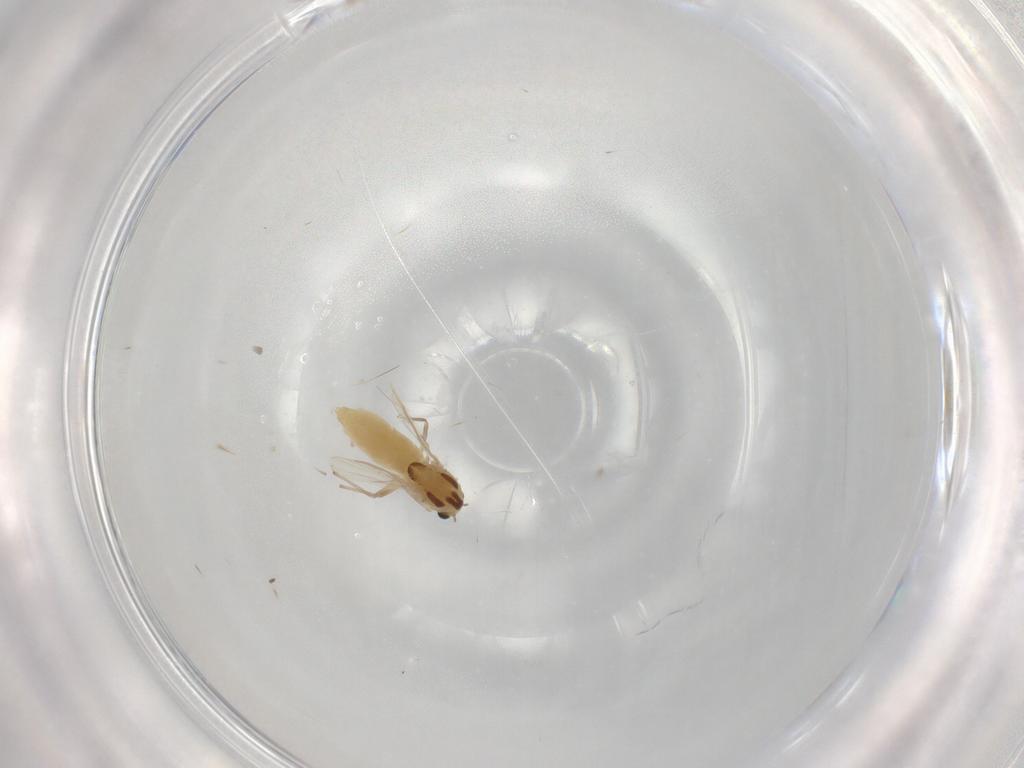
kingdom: Animalia
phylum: Arthropoda
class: Insecta
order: Diptera
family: Chironomidae
